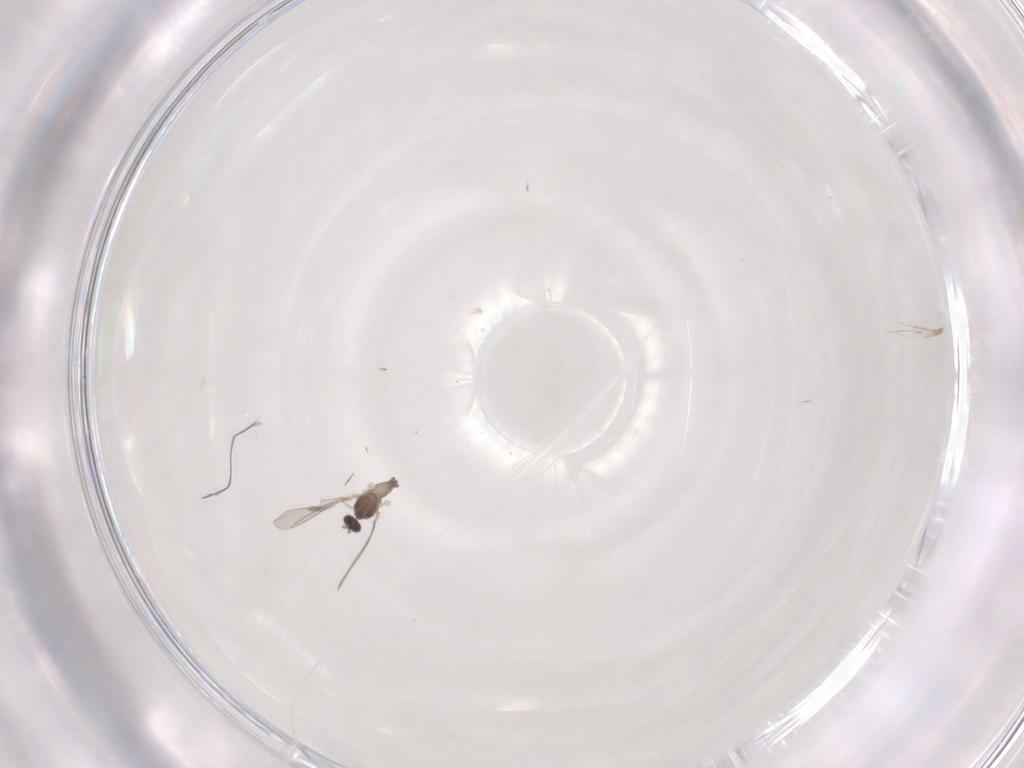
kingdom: Animalia
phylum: Arthropoda
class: Insecta
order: Diptera
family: Cecidomyiidae
